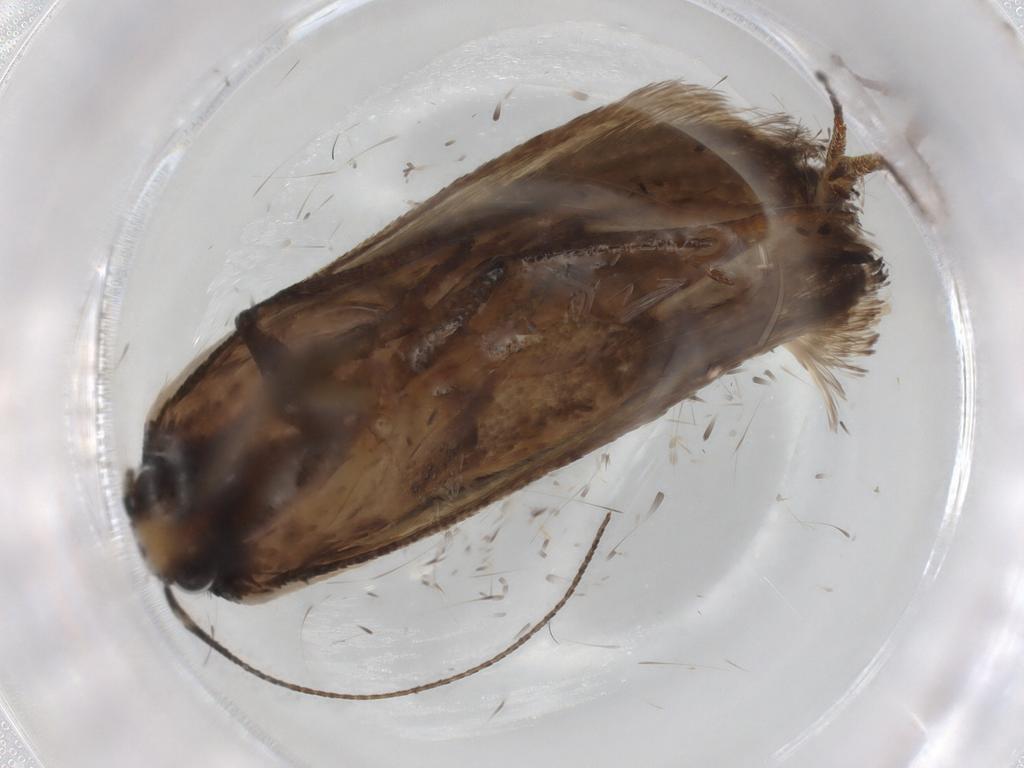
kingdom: Animalia
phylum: Arthropoda
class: Insecta
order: Lepidoptera
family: Gelechiidae
